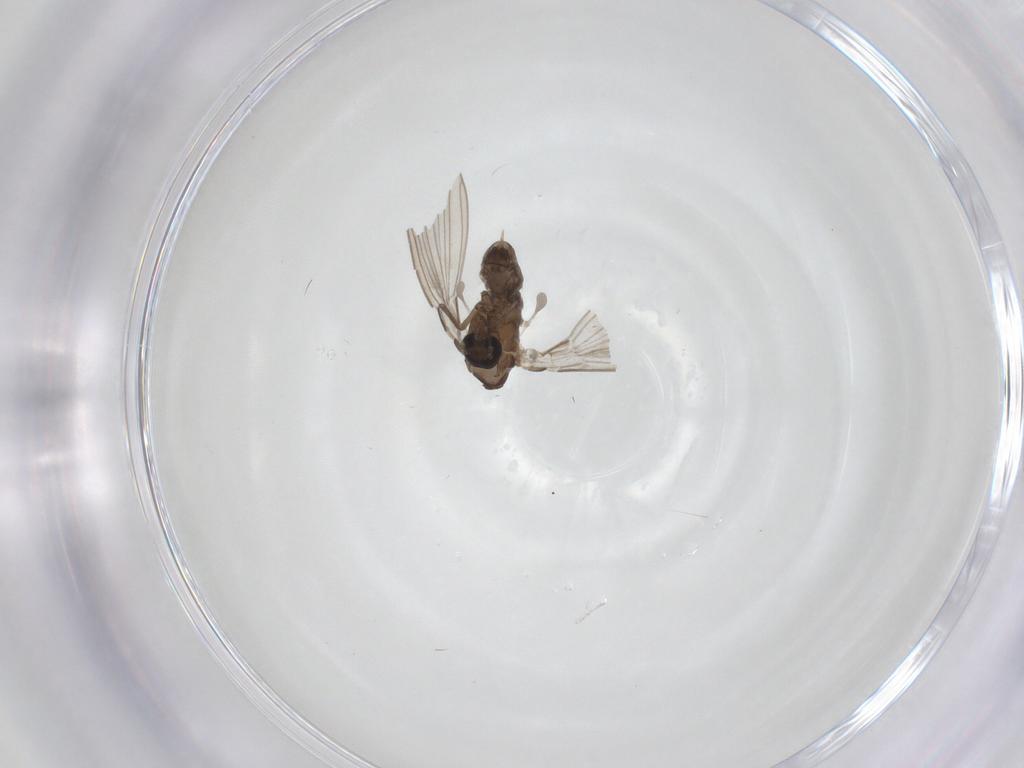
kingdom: Animalia
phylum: Arthropoda
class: Insecta
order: Diptera
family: Psychodidae
